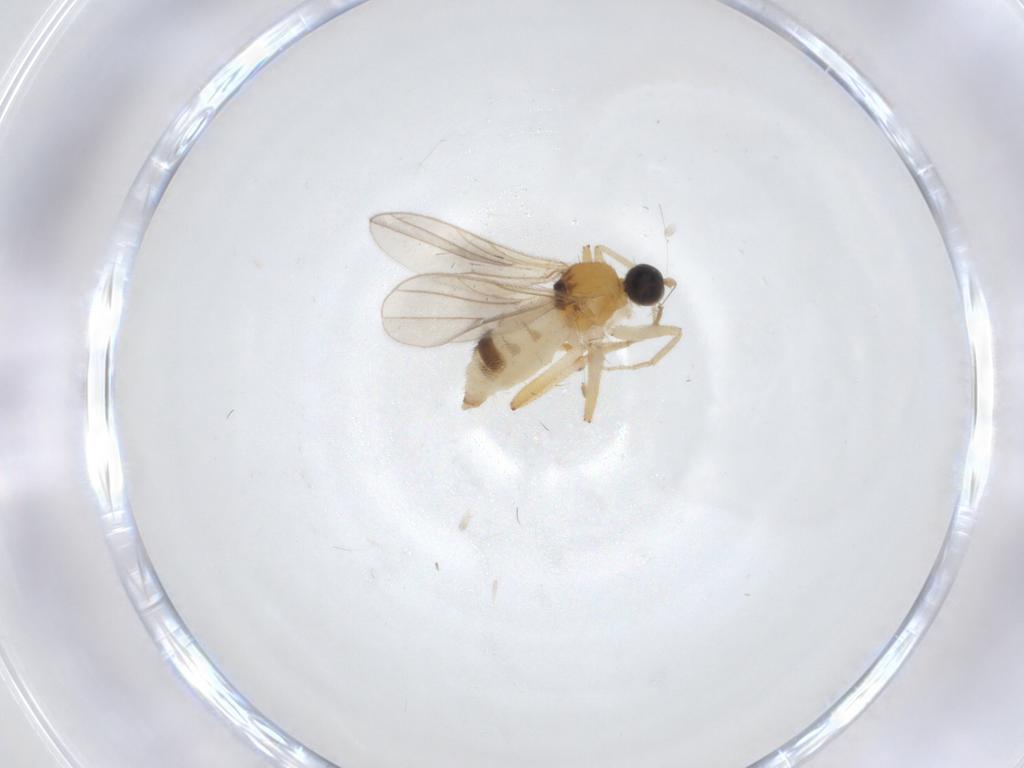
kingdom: Animalia
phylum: Arthropoda
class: Insecta
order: Diptera
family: Hybotidae
